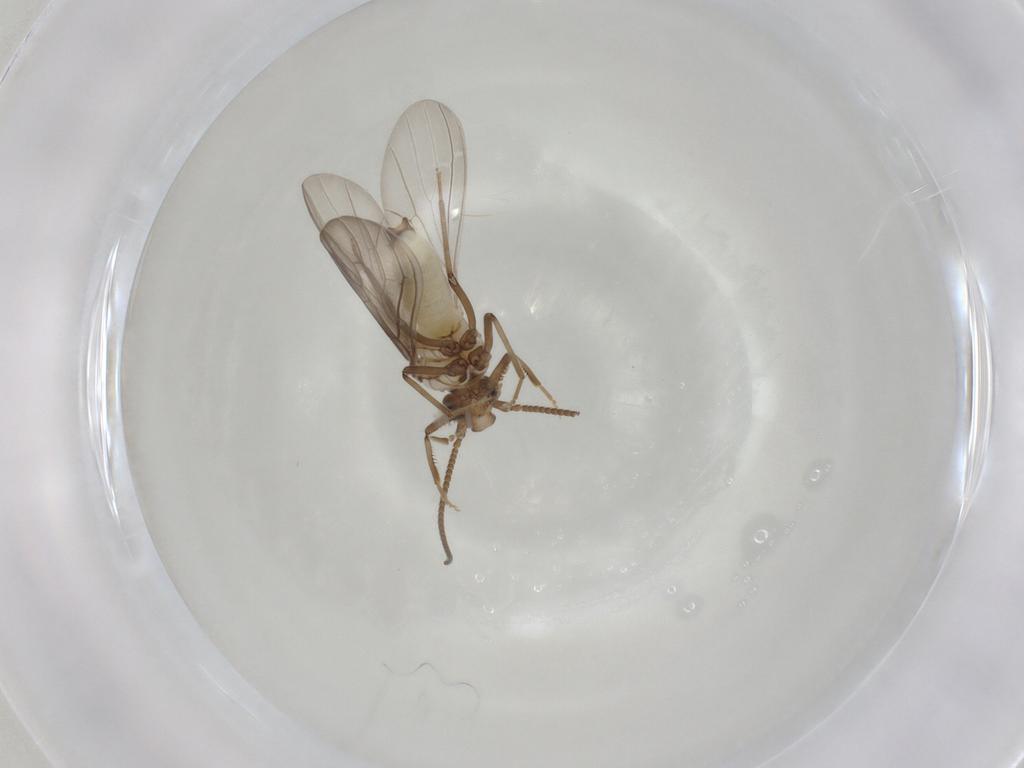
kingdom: Animalia
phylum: Arthropoda
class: Insecta
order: Neuroptera
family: Coniopterygidae
